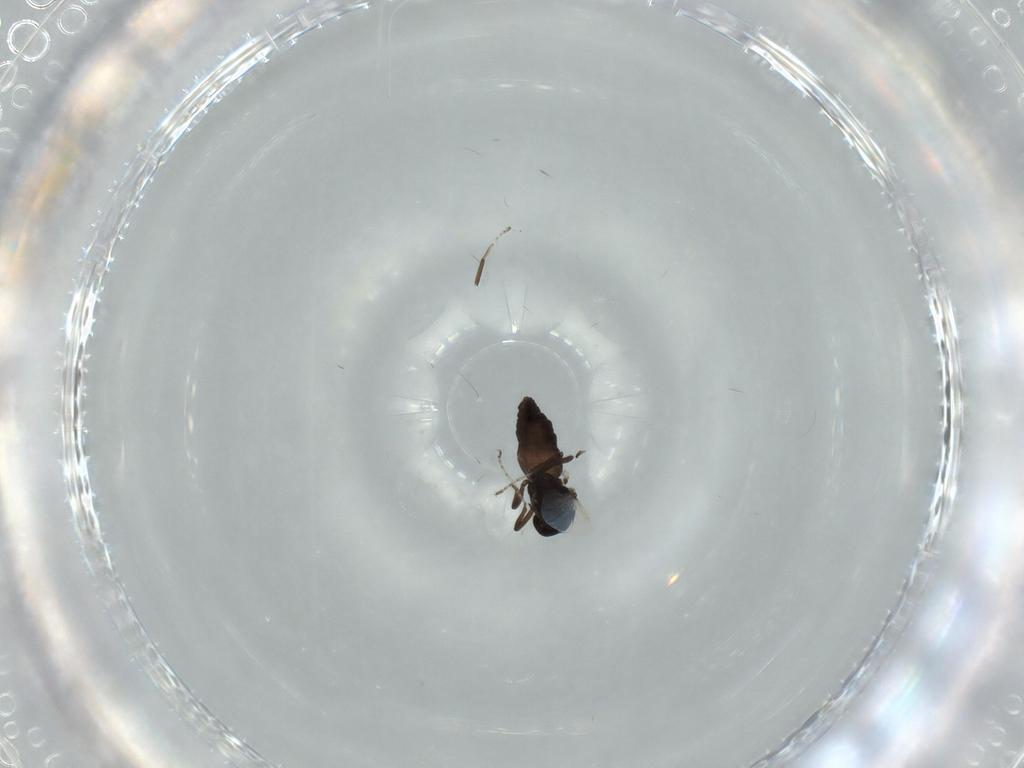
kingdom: Animalia
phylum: Arthropoda
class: Insecta
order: Diptera
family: Ceratopogonidae
